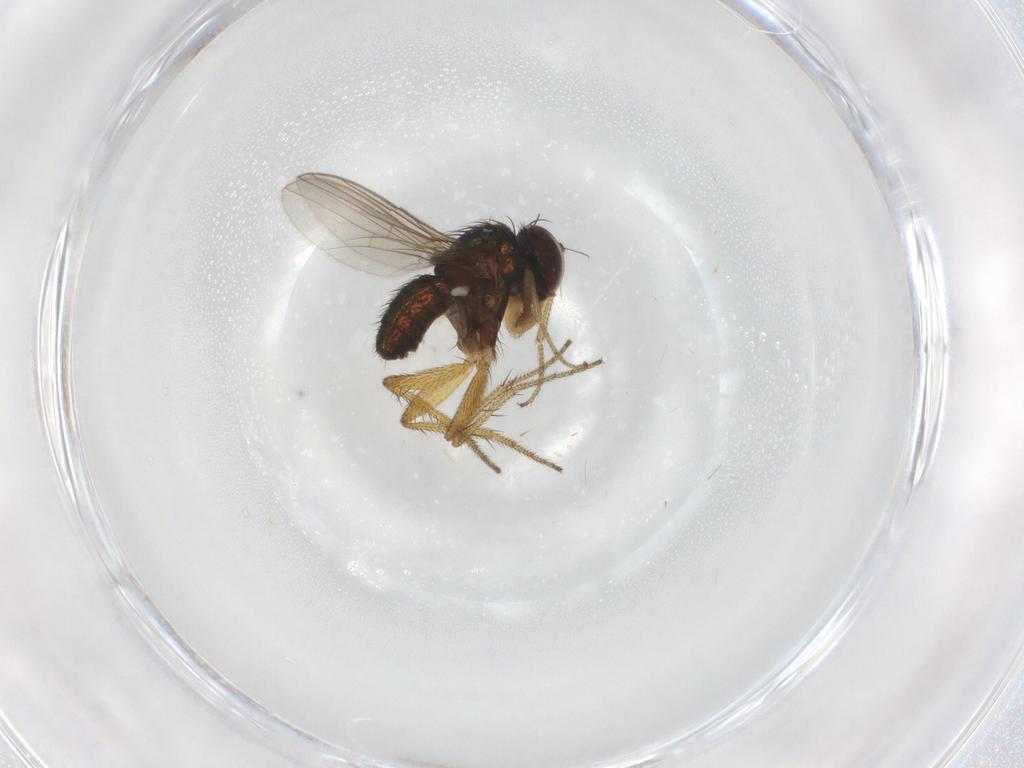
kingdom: Animalia
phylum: Arthropoda
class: Insecta
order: Diptera
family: Dolichopodidae
